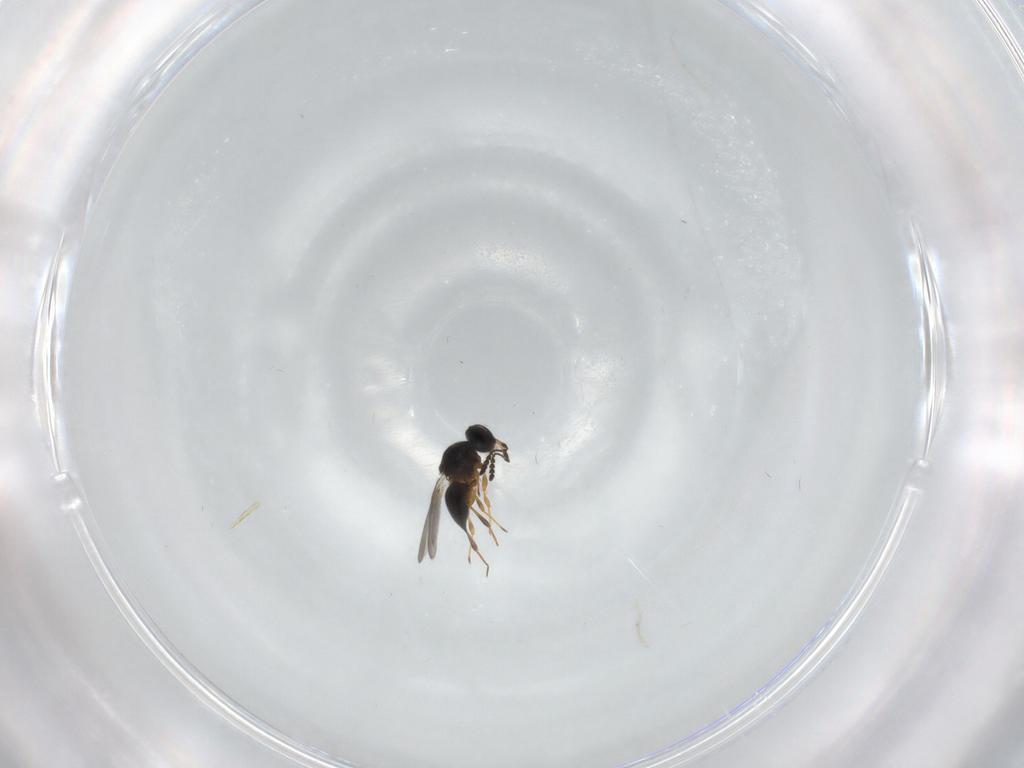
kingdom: Animalia
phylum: Arthropoda
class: Insecta
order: Hymenoptera
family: Platygastridae
